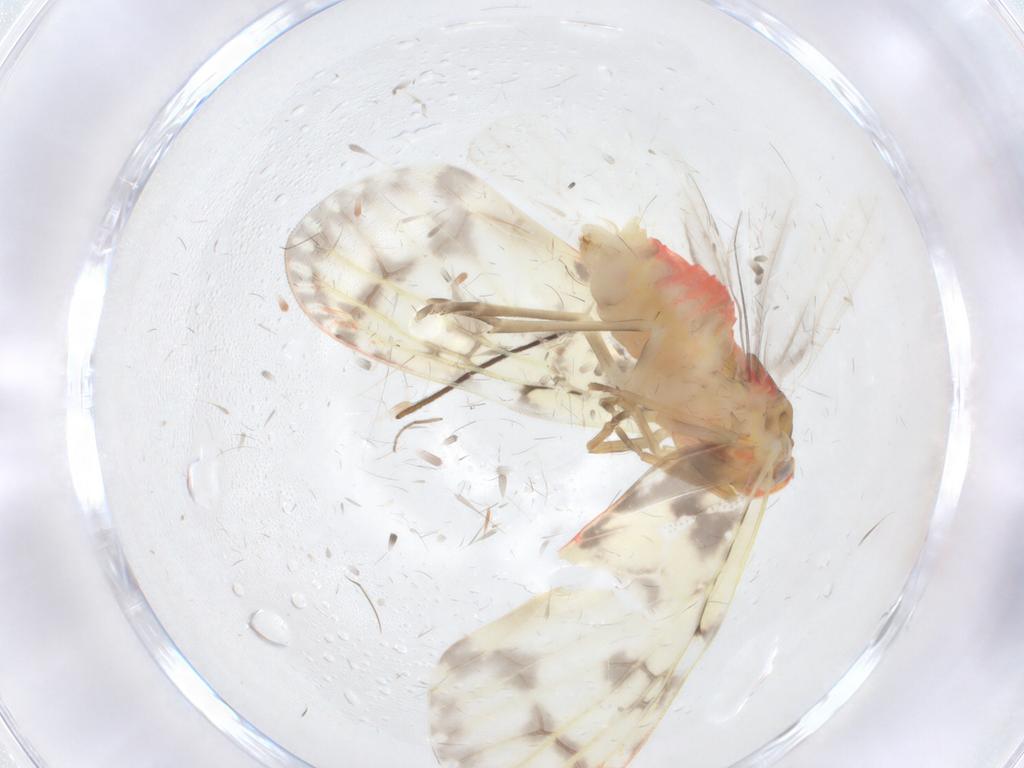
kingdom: Animalia
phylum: Arthropoda
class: Insecta
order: Hemiptera
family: Derbidae
